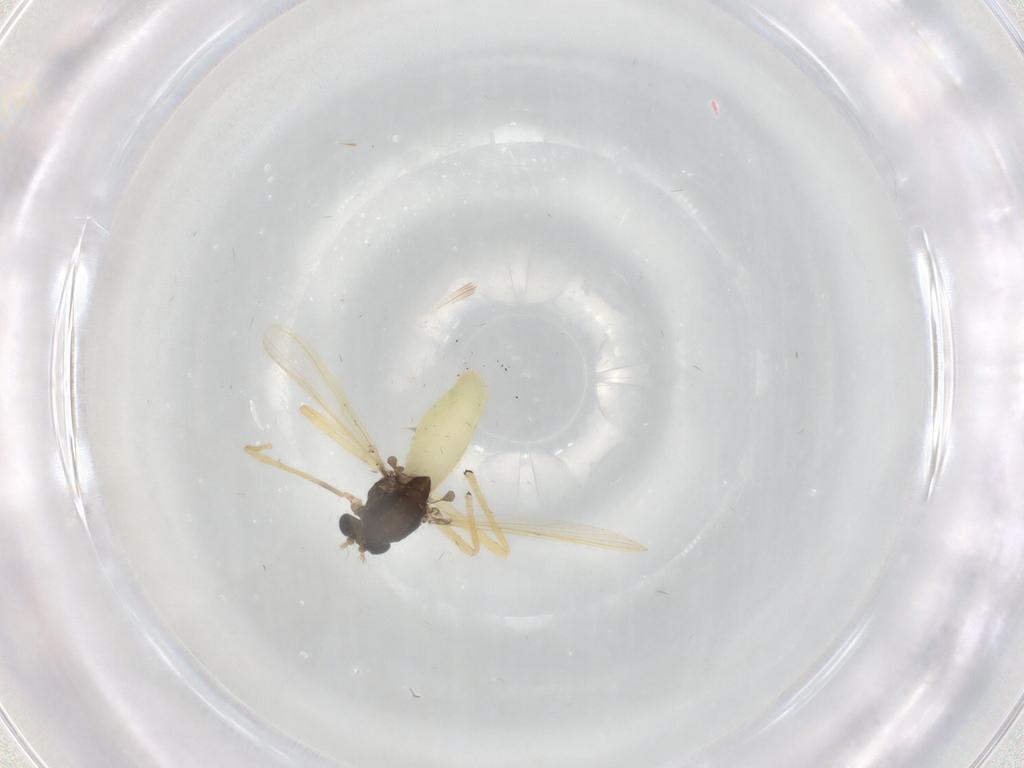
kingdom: Animalia
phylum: Arthropoda
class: Insecta
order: Diptera
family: Chironomidae
